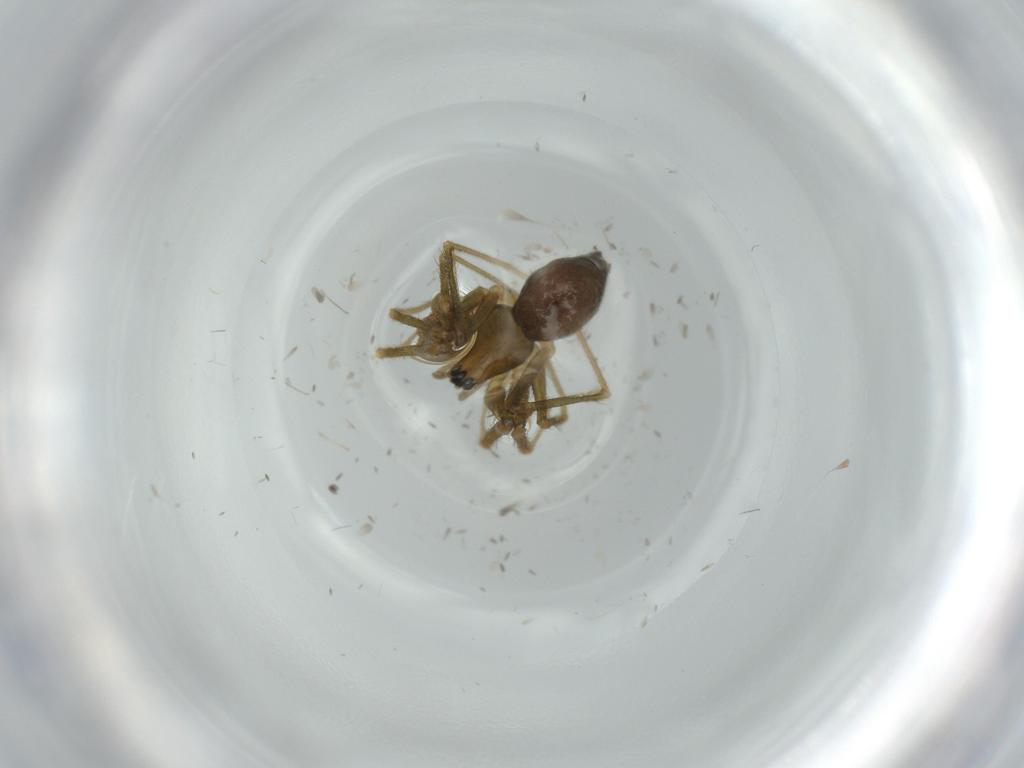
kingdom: Animalia
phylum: Arthropoda
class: Arachnida
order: Araneae
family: Linyphiidae
